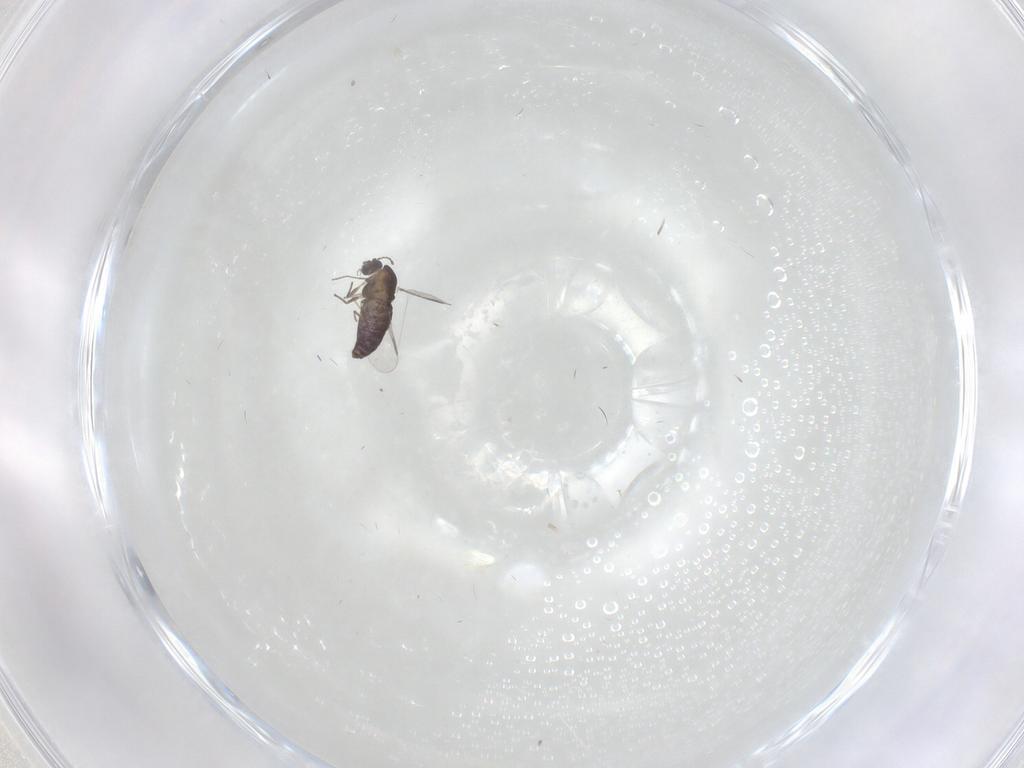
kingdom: Animalia
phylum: Arthropoda
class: Insecta
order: Diptera
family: Chironomidae
